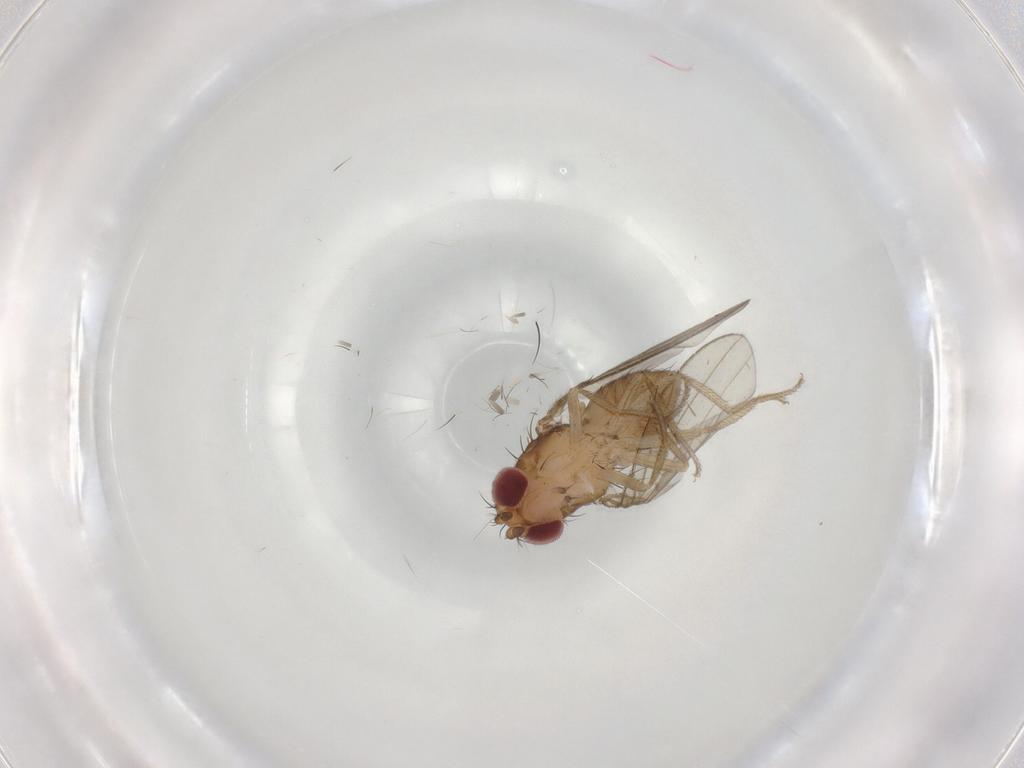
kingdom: Animalia
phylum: Arthropoda
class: Insecta
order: Diptera
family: Drosophilidae
